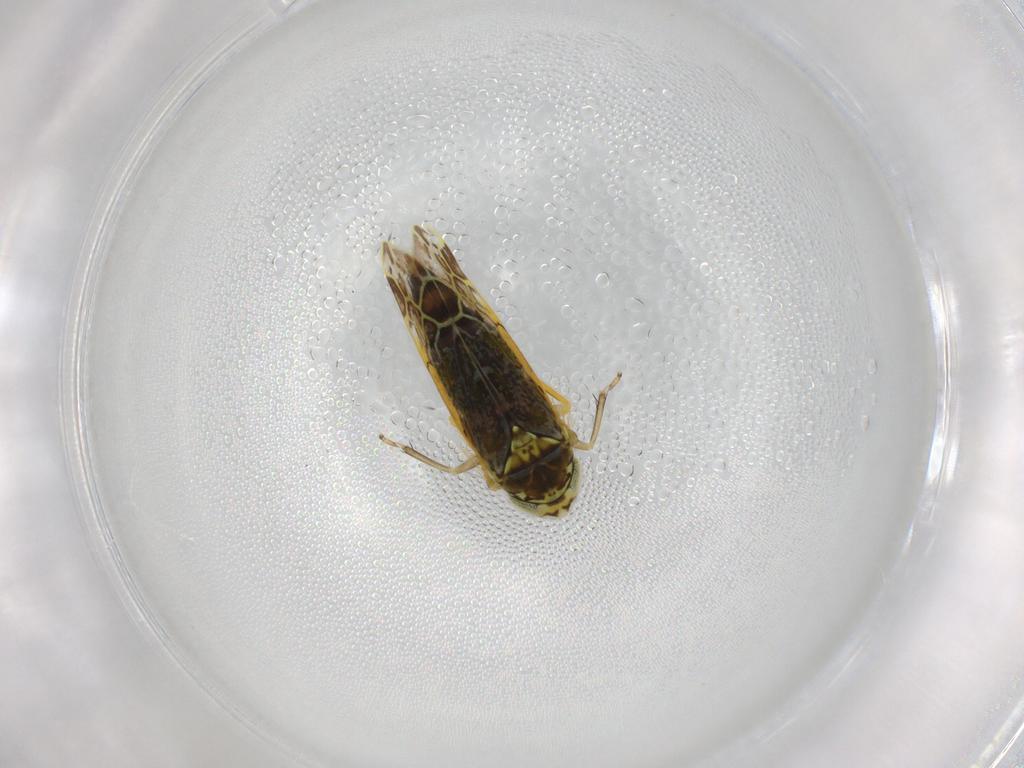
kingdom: Animalia
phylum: Arthropoda
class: Insecta
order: Hemiptera
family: Cicadellidae
